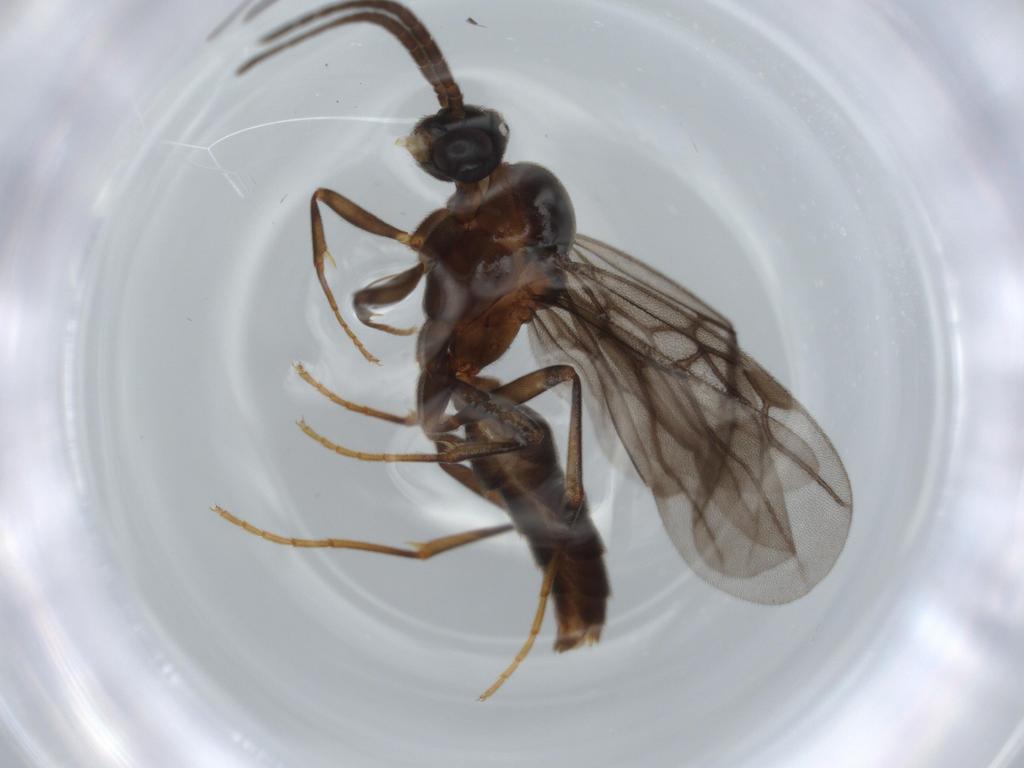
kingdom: Animalia
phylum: Arthropoda
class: Insecta
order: Hymenoptera
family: Formicidae
